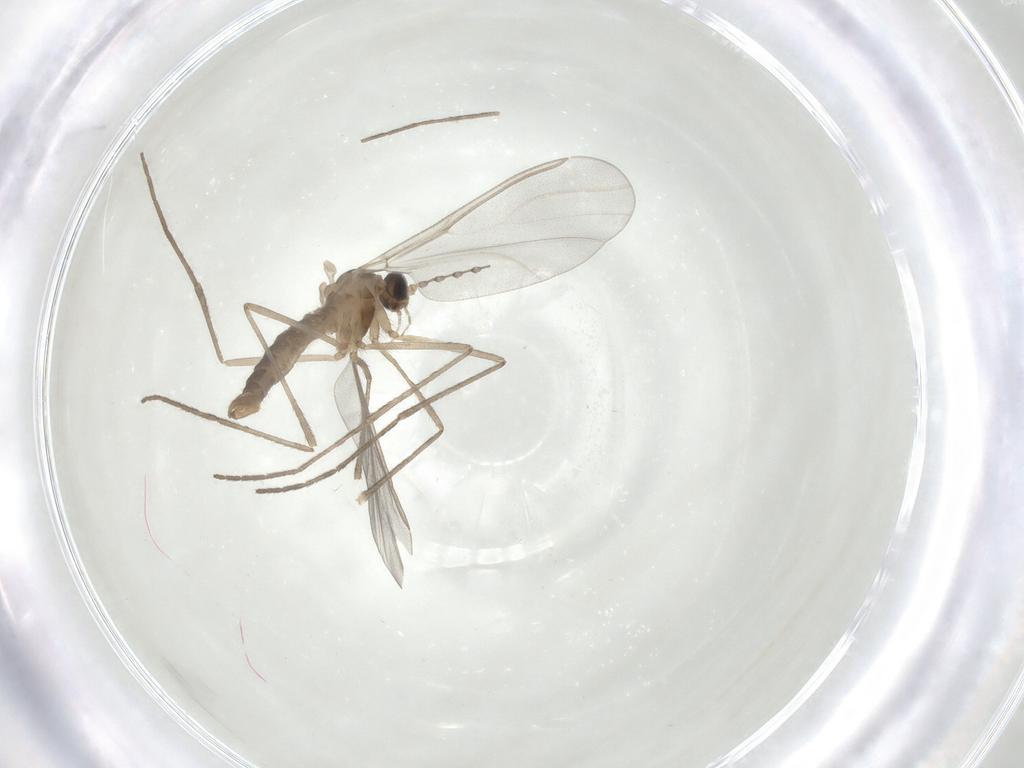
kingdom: Animalia
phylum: Arthropoda
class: Insecta
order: Diptera
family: Cecidomyiidae
